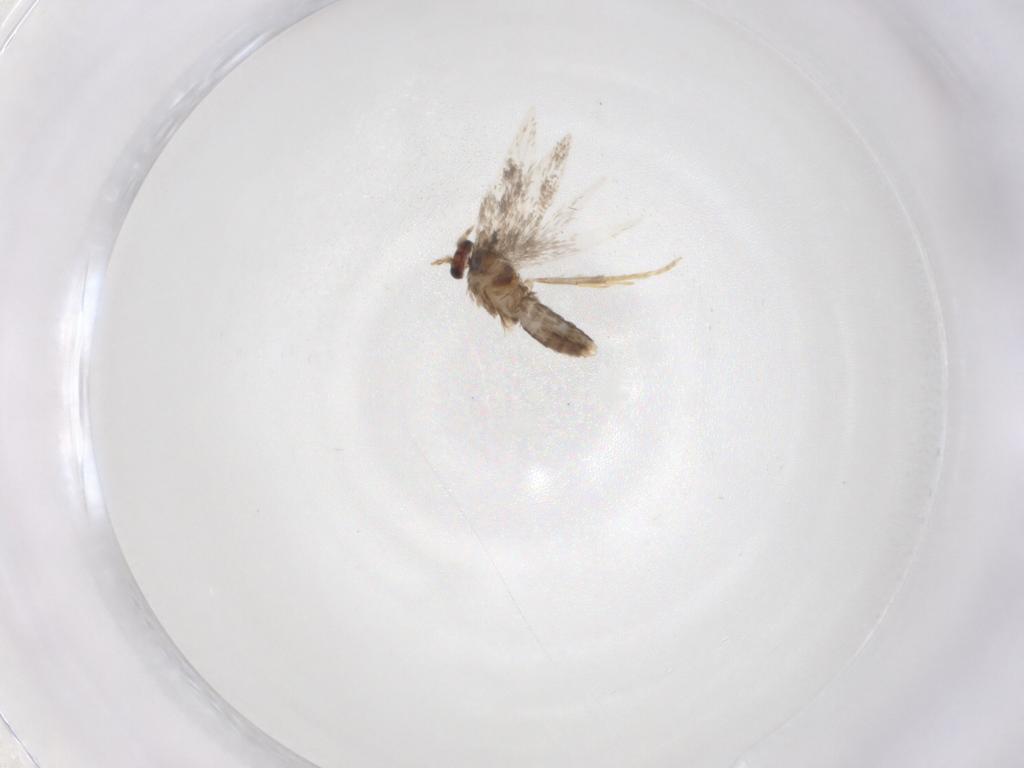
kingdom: Animalia
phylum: Arthropoda
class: Insecta
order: Lepidoptera
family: Nepticulidae
